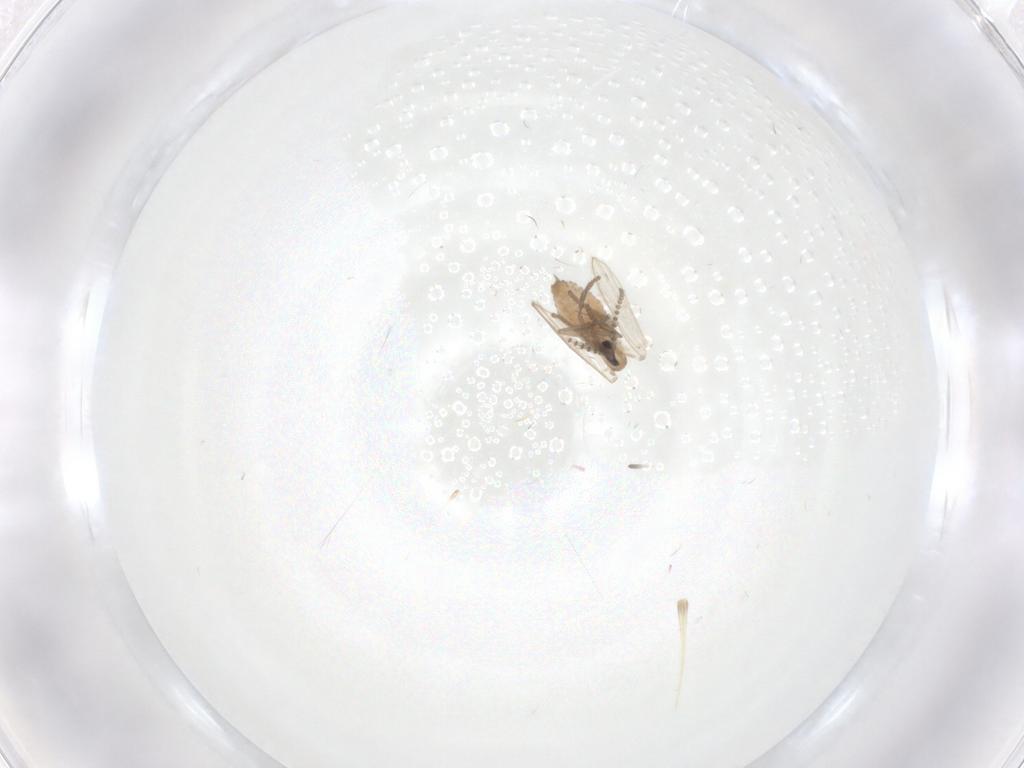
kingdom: Animalia
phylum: Arthropoda
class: Insecta
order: Diptera
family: Psychodidae
